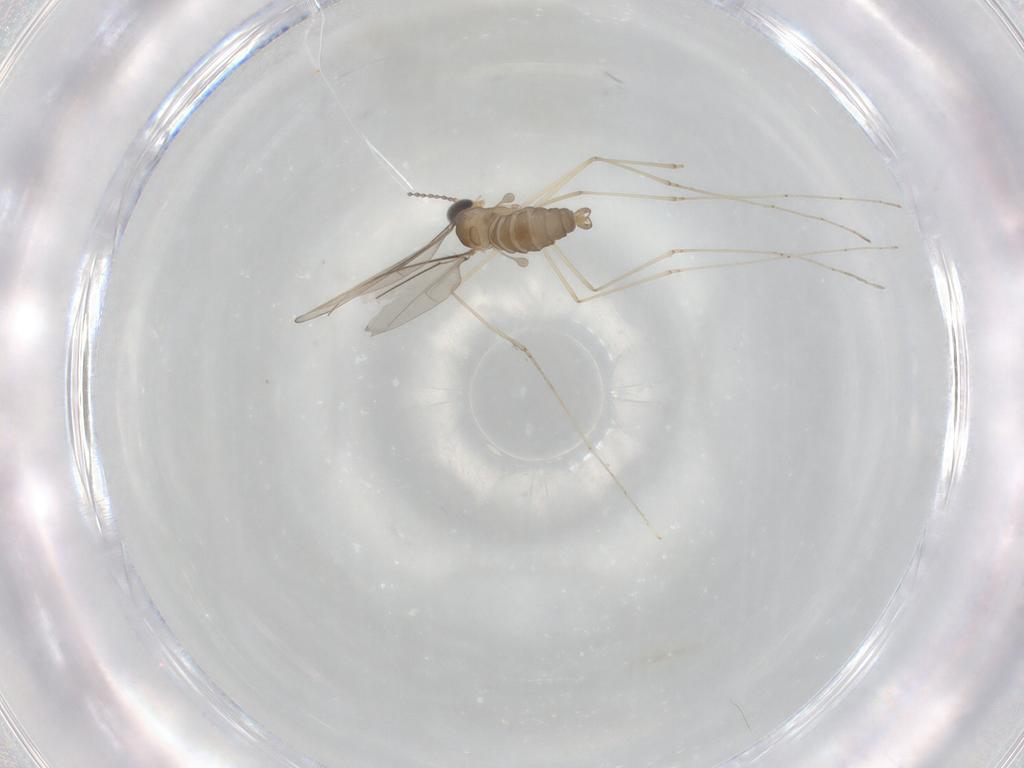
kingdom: Animalia
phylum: Arthropoda
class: Insecta
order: Diptera
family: Cecidomyiidae
